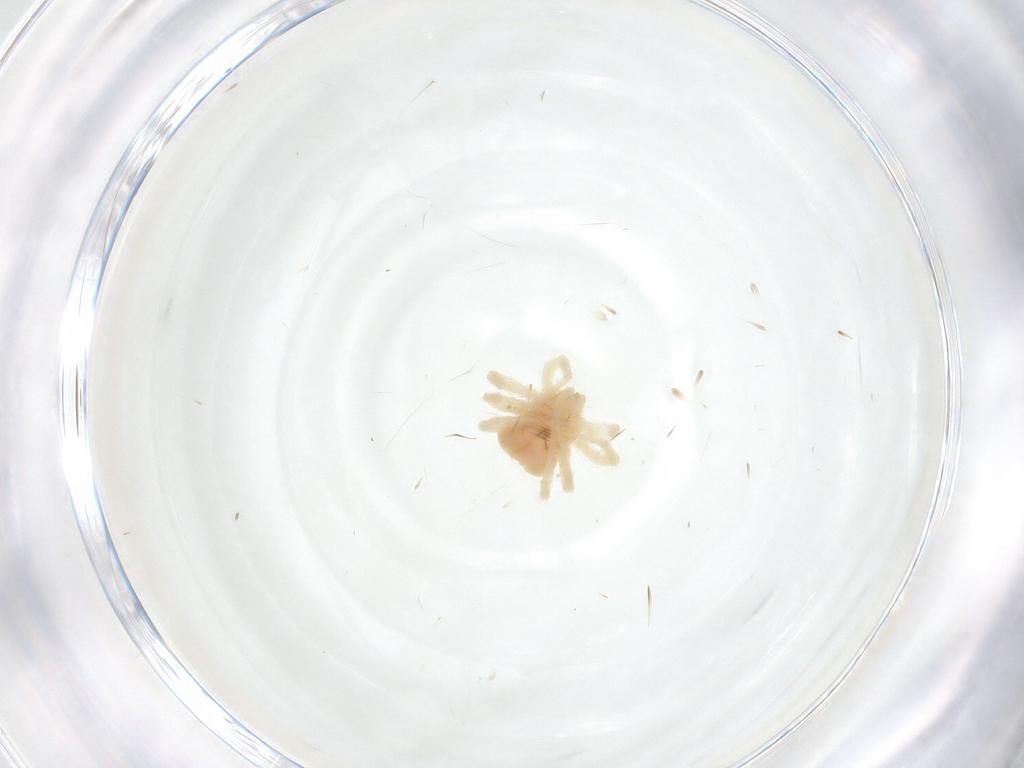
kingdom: Animalia
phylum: Arthropoda
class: Arachnida
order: Trombidiformes
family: Anystidae
